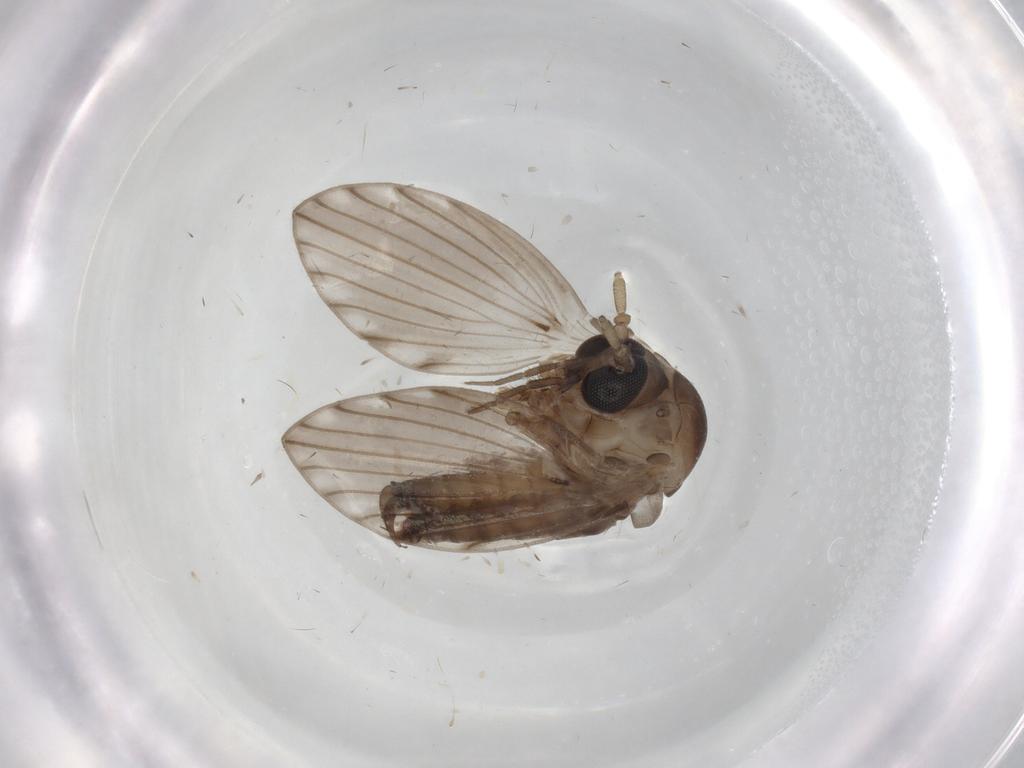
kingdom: Animalia
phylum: Arthropoda
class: Insecta
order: Diptera
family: Psychodidae
